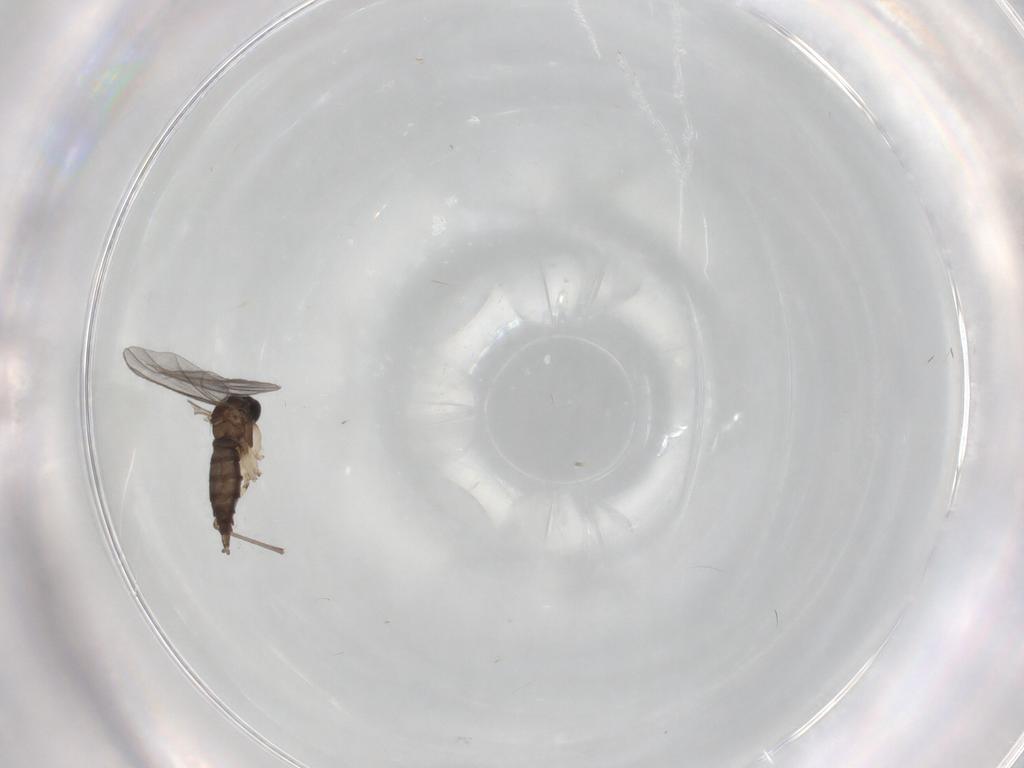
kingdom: Animalia
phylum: Arthropoda
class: Insecta
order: Diptera
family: Sciaridae
